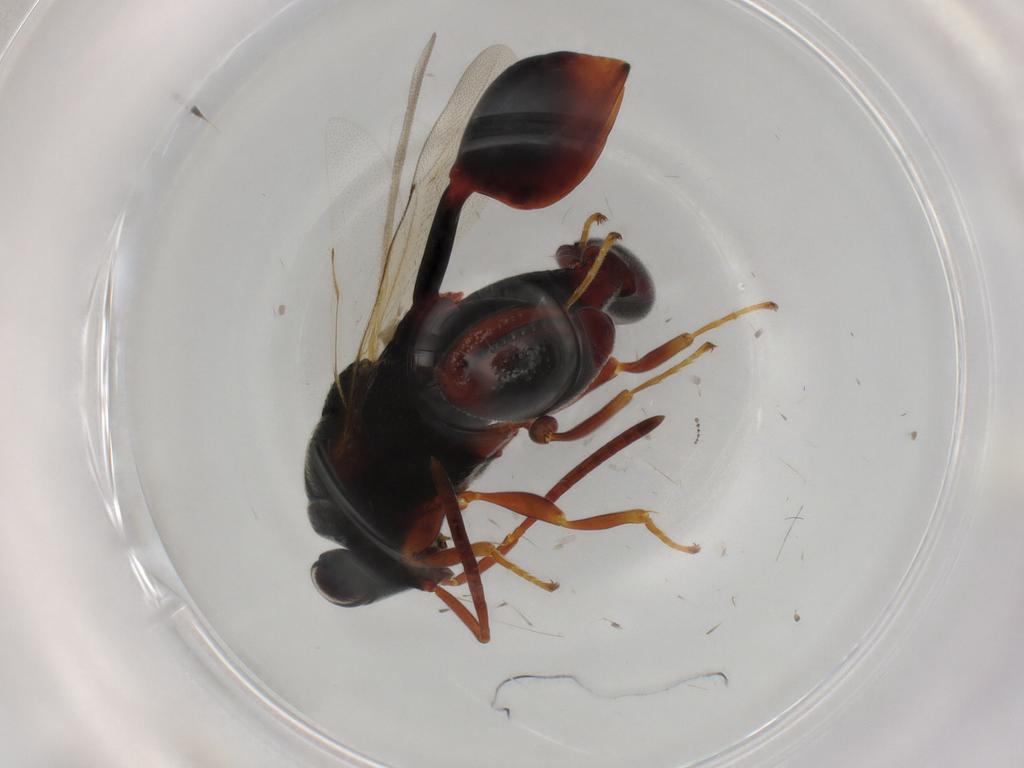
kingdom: Animalia
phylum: Arthropoda
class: Insecta
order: Hymenoptera
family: Scelionidae
